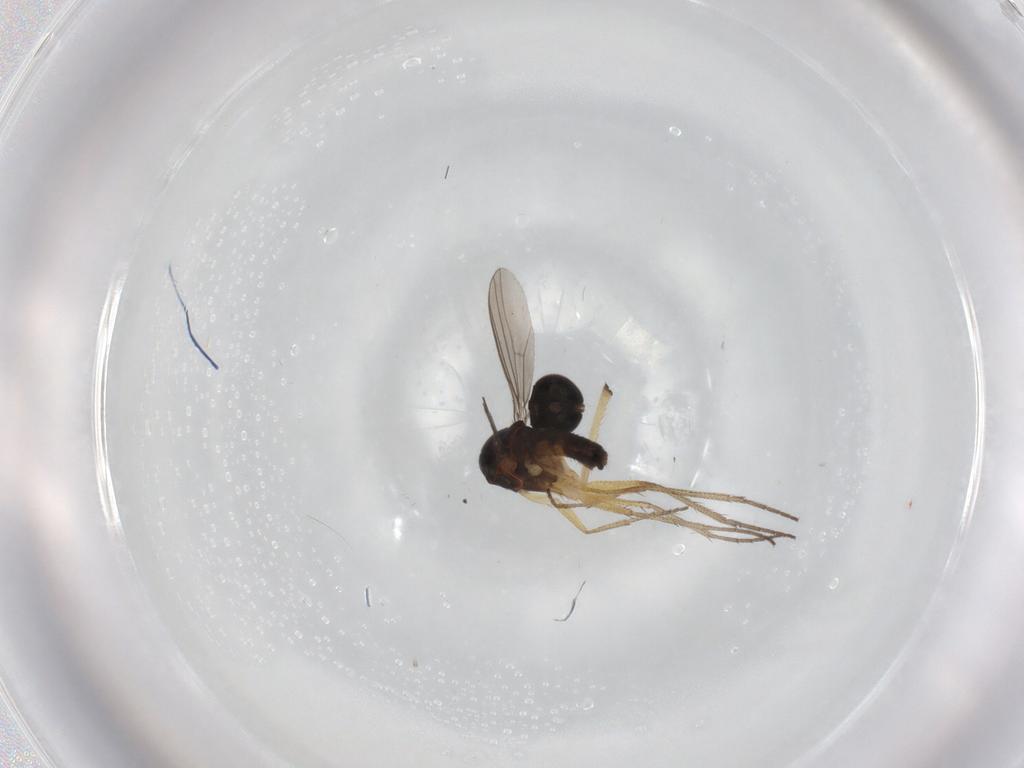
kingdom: Animalia
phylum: Arthropoda
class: Insecta
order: Diptera
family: Dolichopodidae
